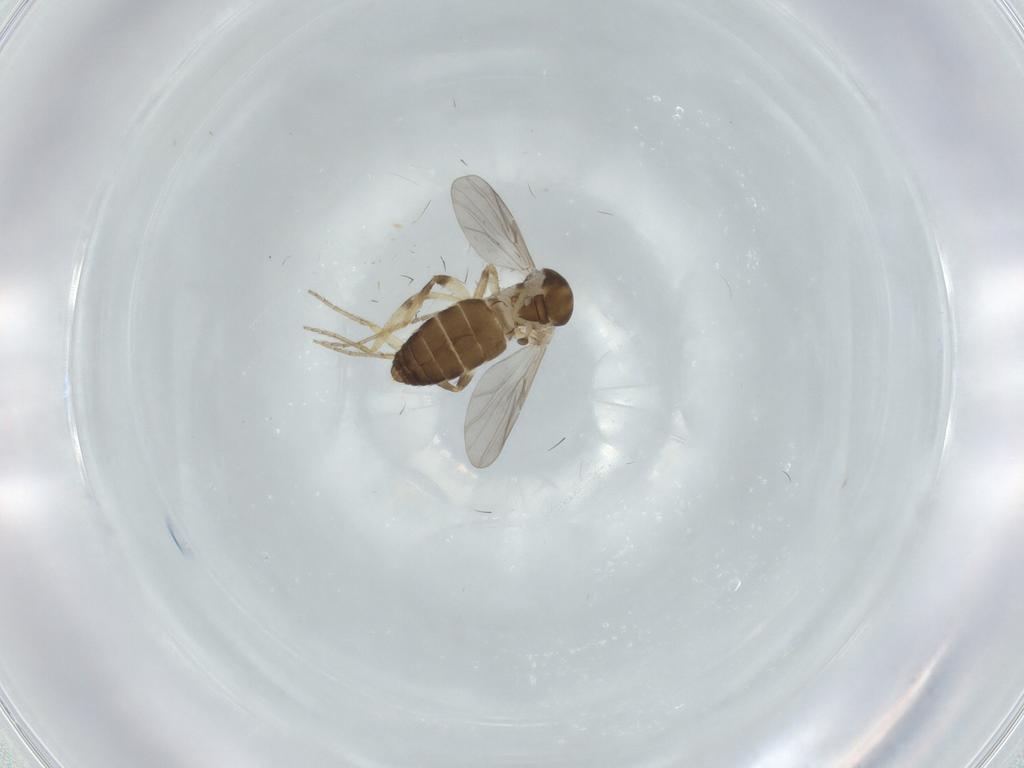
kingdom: Animalia
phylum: Arthropoda
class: Insecta
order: Diptera
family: Ceratopogonidae
